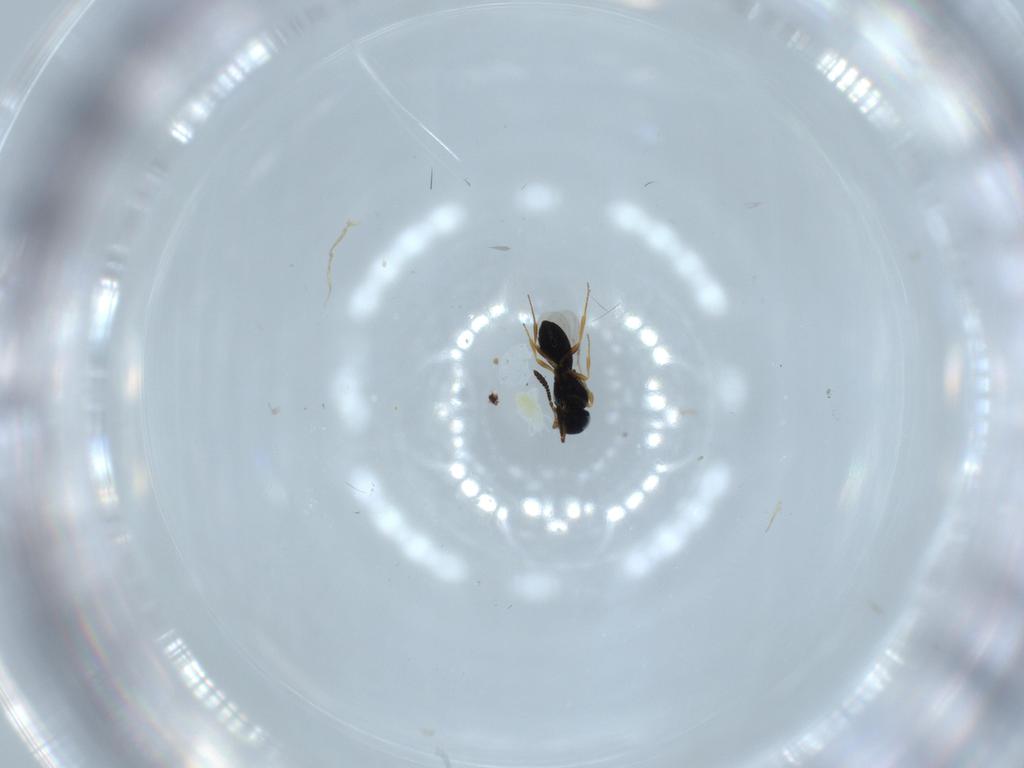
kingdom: Animalia
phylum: Arthropoda
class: Insecta
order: Hymenoptera
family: Scelionidae
